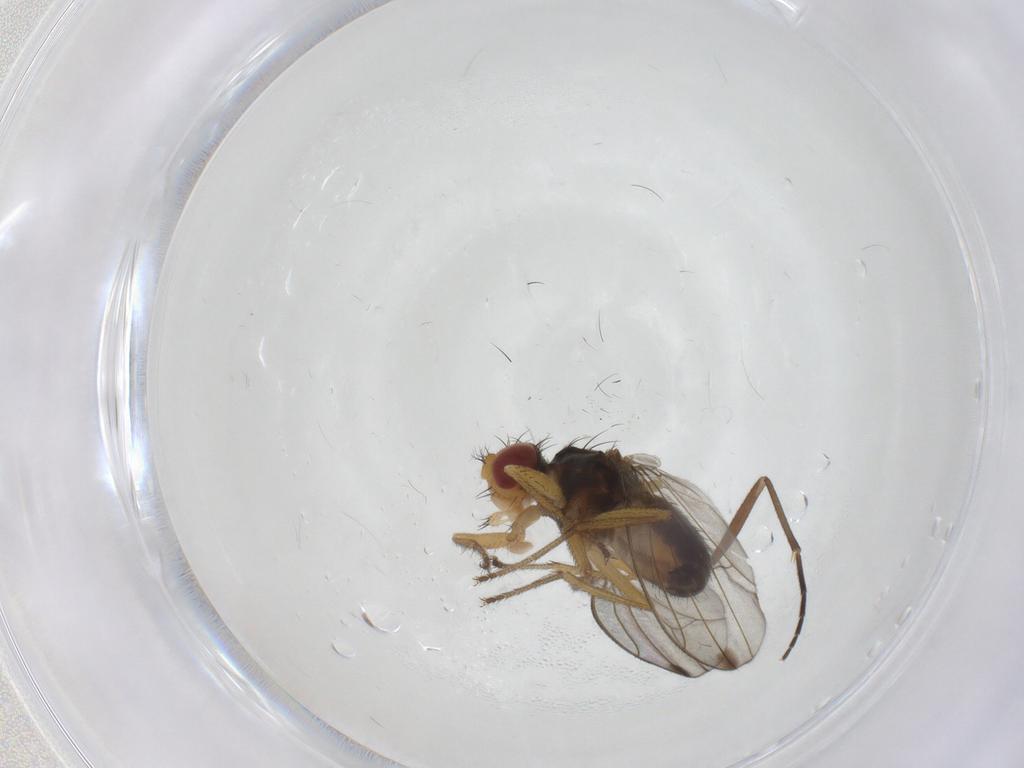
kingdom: Animalia
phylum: Arthropoda
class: Insecta
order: Diptera
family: Drosophilidae
